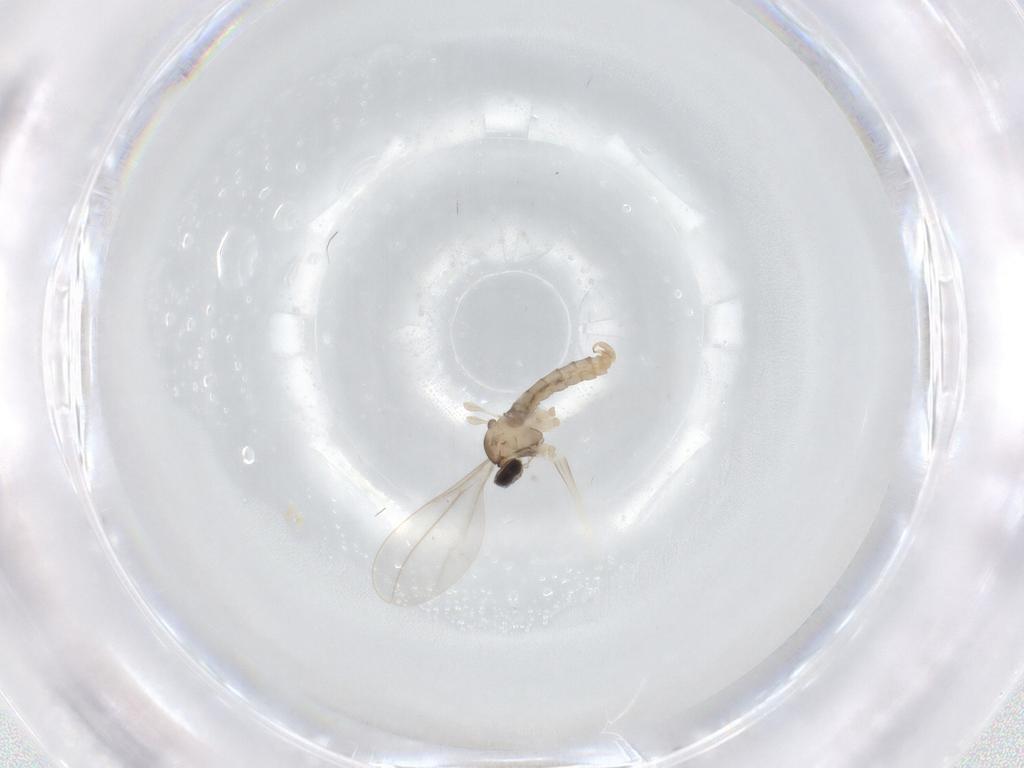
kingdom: Animalia
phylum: Arthropoda
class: Insecta
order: Diptera
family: Cecidomyiidae
